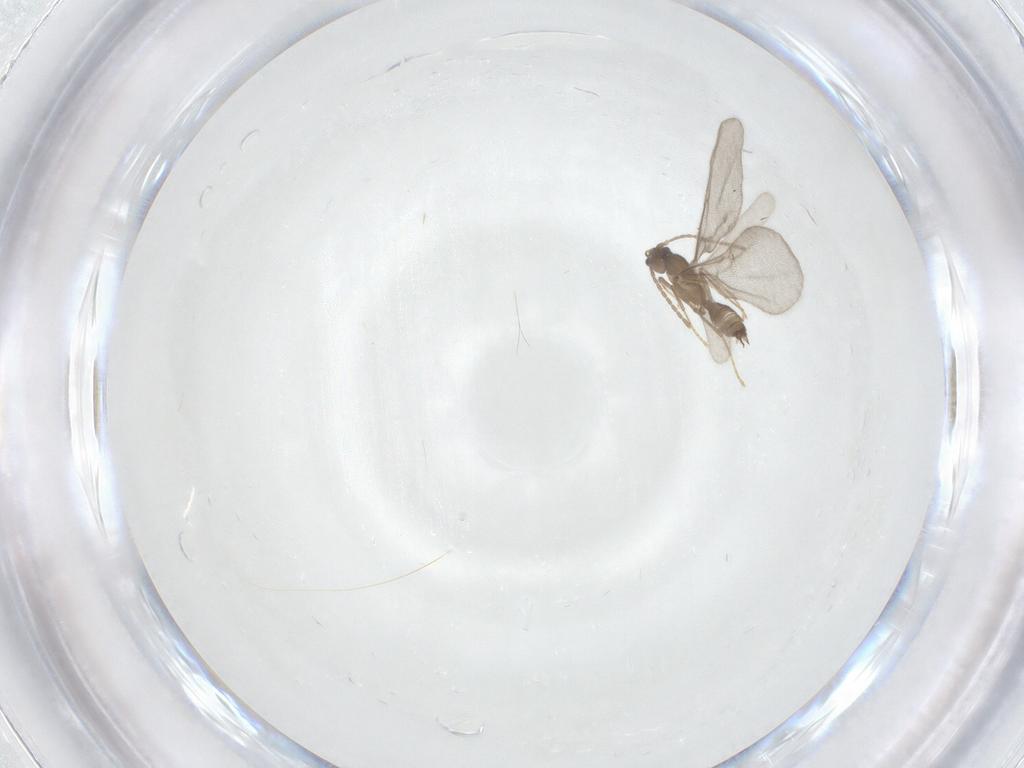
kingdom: Animalia
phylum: Arthropoda
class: Insecta
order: Hymenoptera
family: Formicidae
